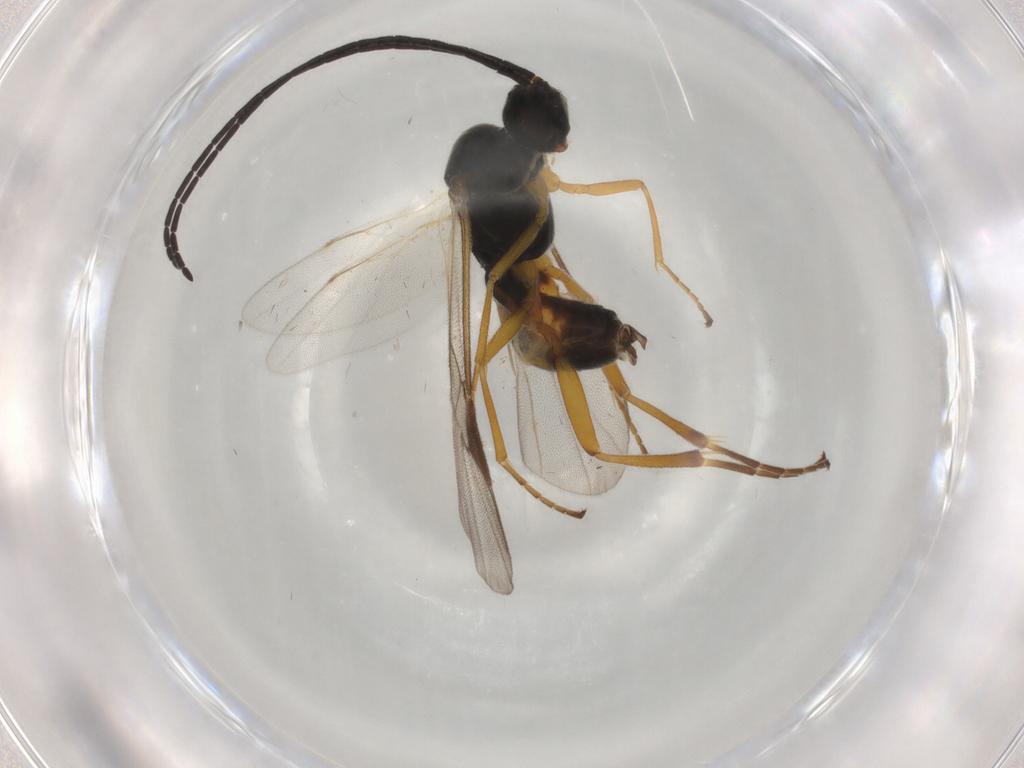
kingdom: Animalia
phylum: Arthropoda
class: Insecta
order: Hymenoptera
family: Braconidae
